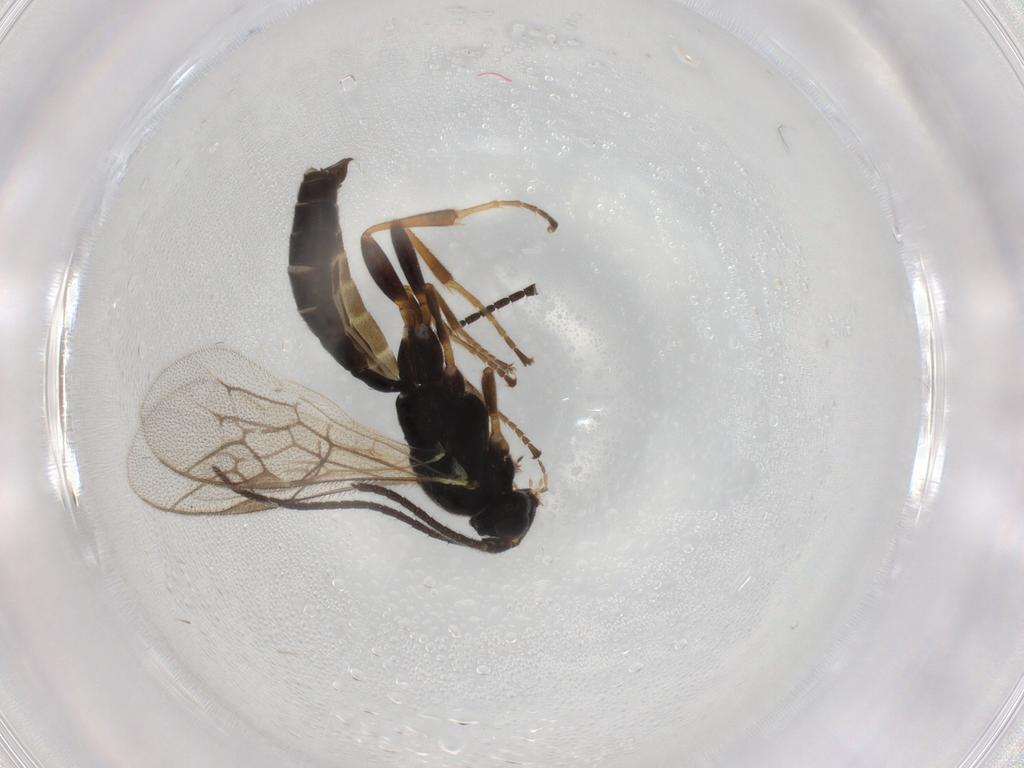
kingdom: Animalia
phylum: Arthropoda
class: Insecta
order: Hymenoptera
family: Ichneumonidae
